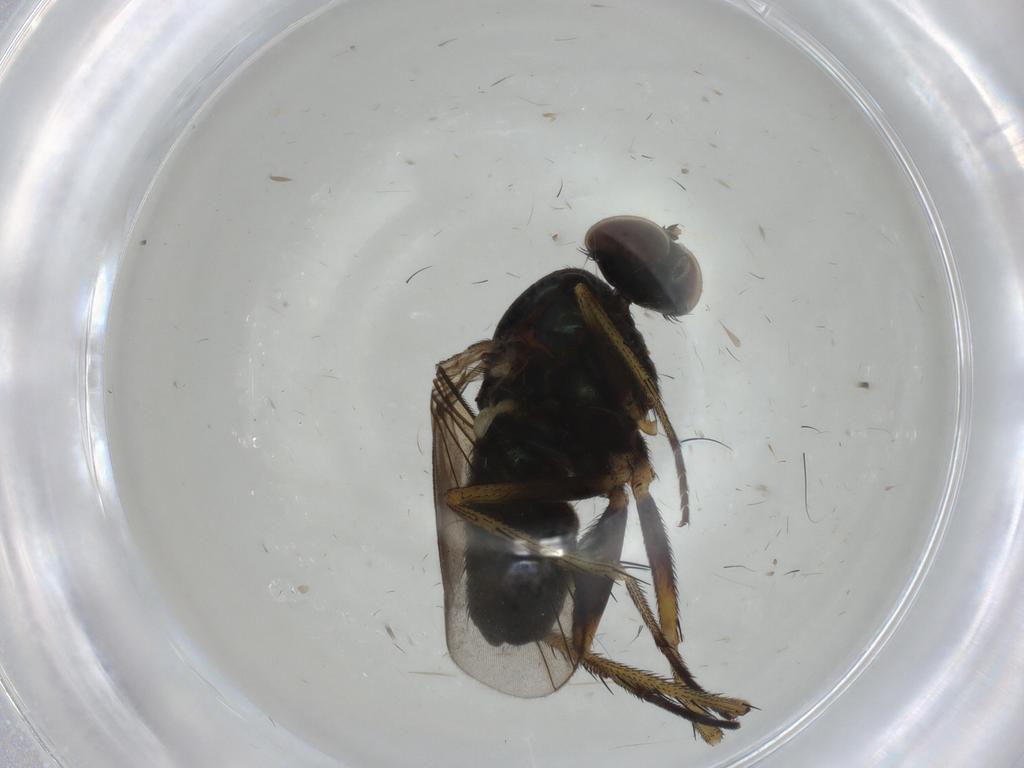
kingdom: Animalia
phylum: Arthropoda
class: Insecta
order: Diptera
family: Dolichopodidae
